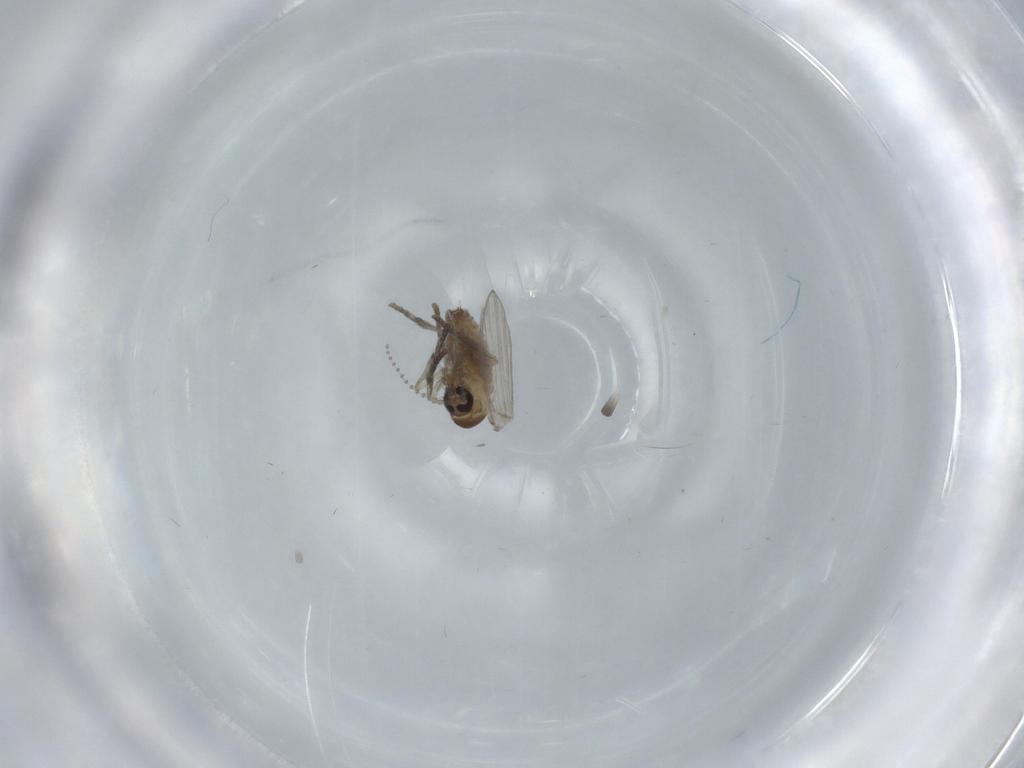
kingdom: Animalia
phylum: Arthropoda
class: Insecta
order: Diptera
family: Psychodidae
